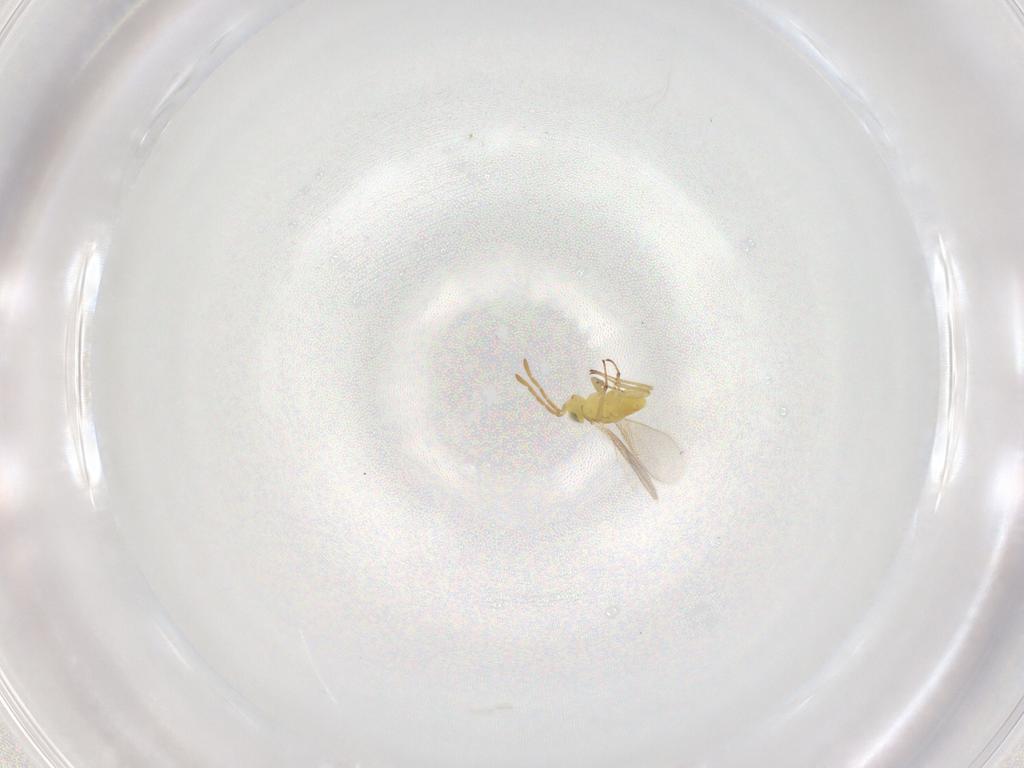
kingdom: Animalia
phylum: Arthropoda
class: Insecta
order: Hymenoptera
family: Aphelinidae
